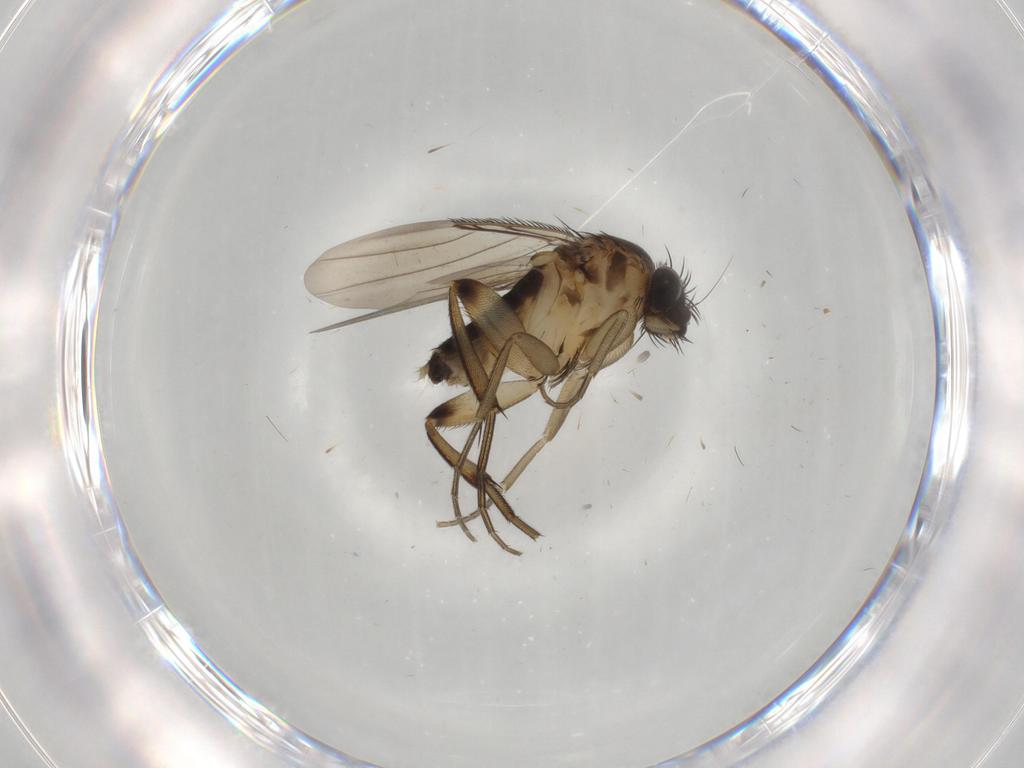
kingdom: Animalia
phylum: Arthropoda
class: Insecta
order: Diptera
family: Phoridae
